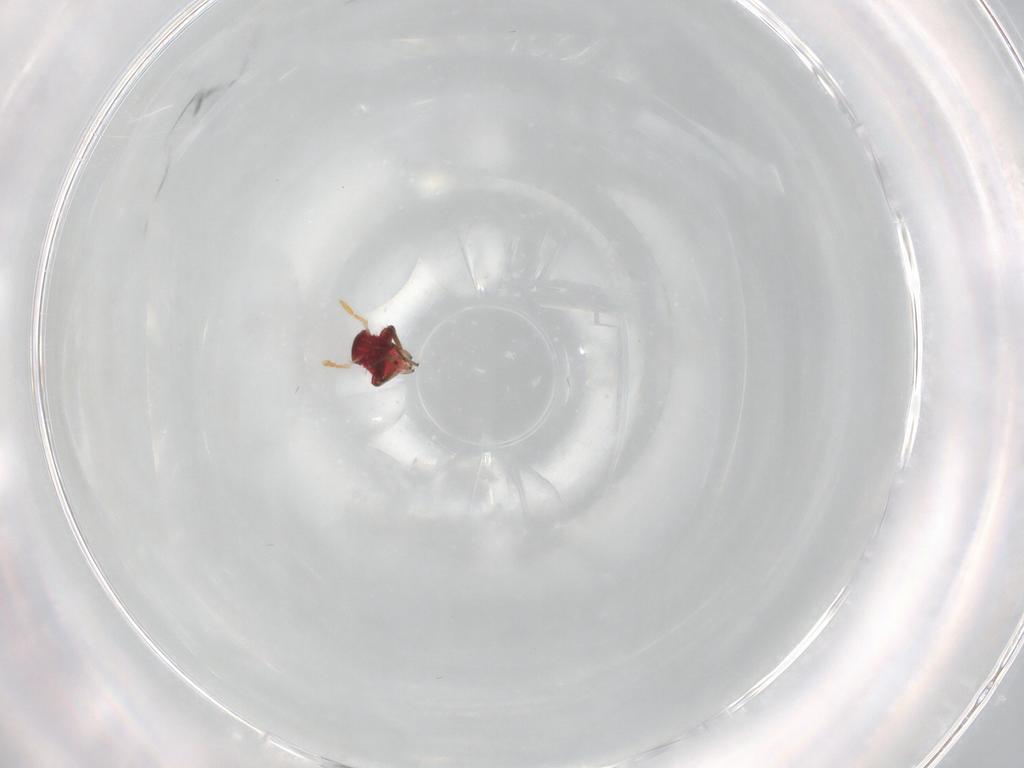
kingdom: Animalia
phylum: Arthropoda
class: Insecta
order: Hemiptera
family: Miridae
